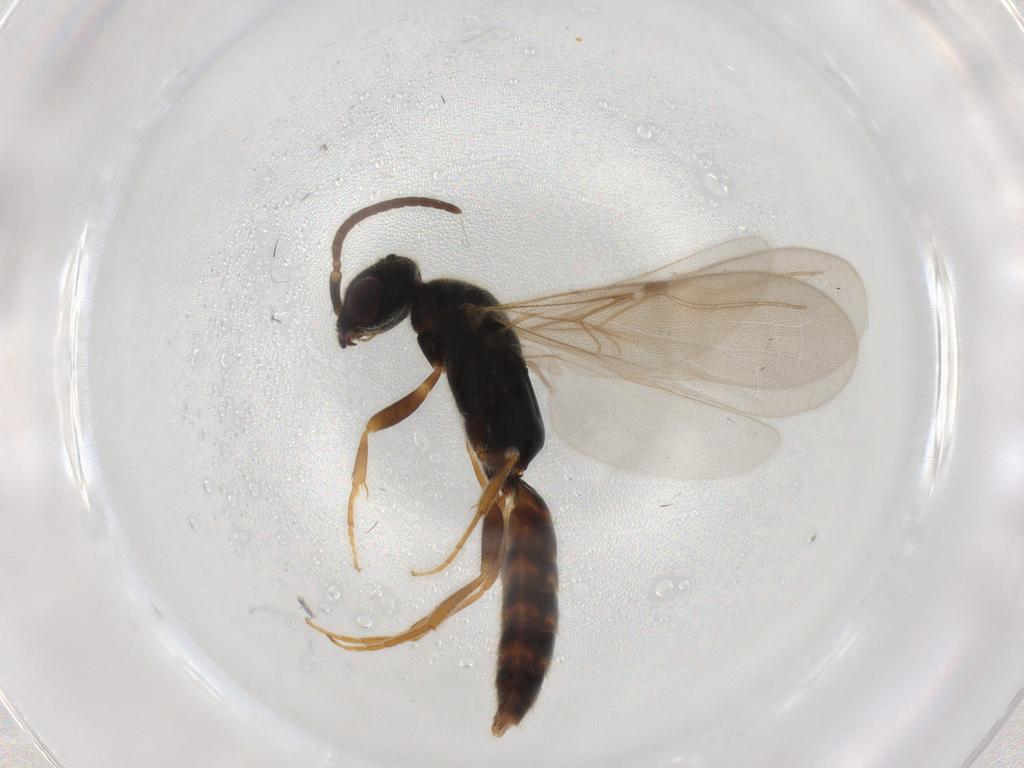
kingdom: Animalia
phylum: Arthropoda
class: Insecta
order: Hymenoptera
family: Bethylidae
